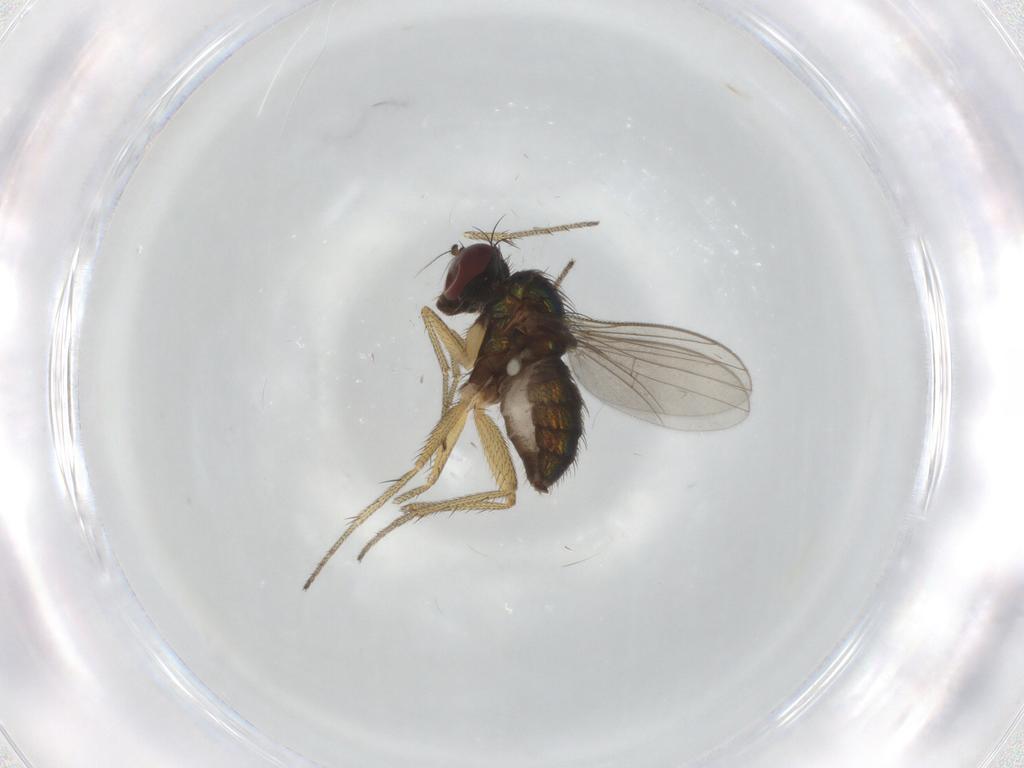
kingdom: Animalia
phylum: Arthropoda
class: Insecta
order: Diptera
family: Chironomidae
